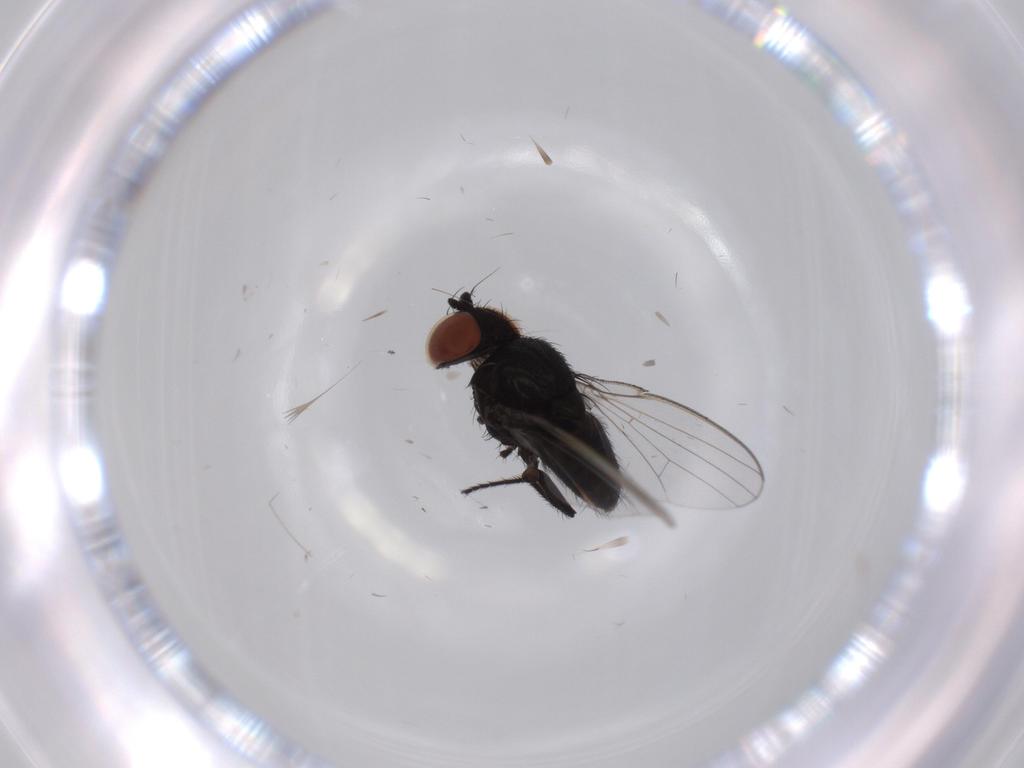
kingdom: Animalia
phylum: Arthropoda
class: Insecta
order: Diptera
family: Milichiidae
